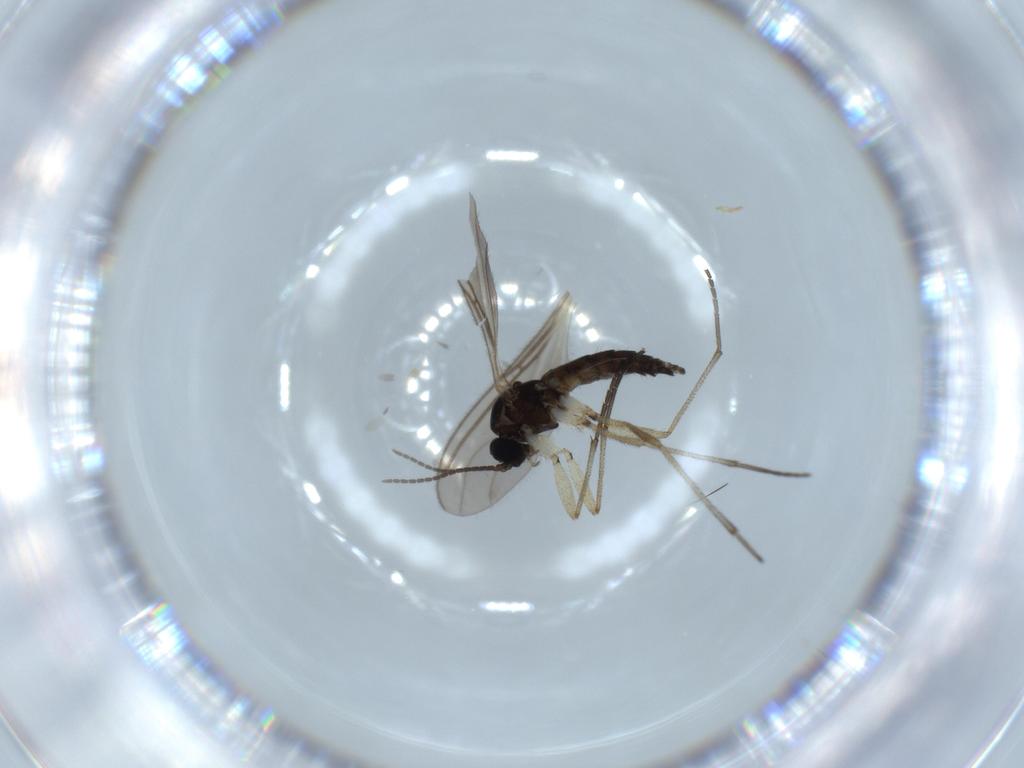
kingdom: Animalia
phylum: Arthropoda
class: Insecta
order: Diptera
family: Sciaridae
